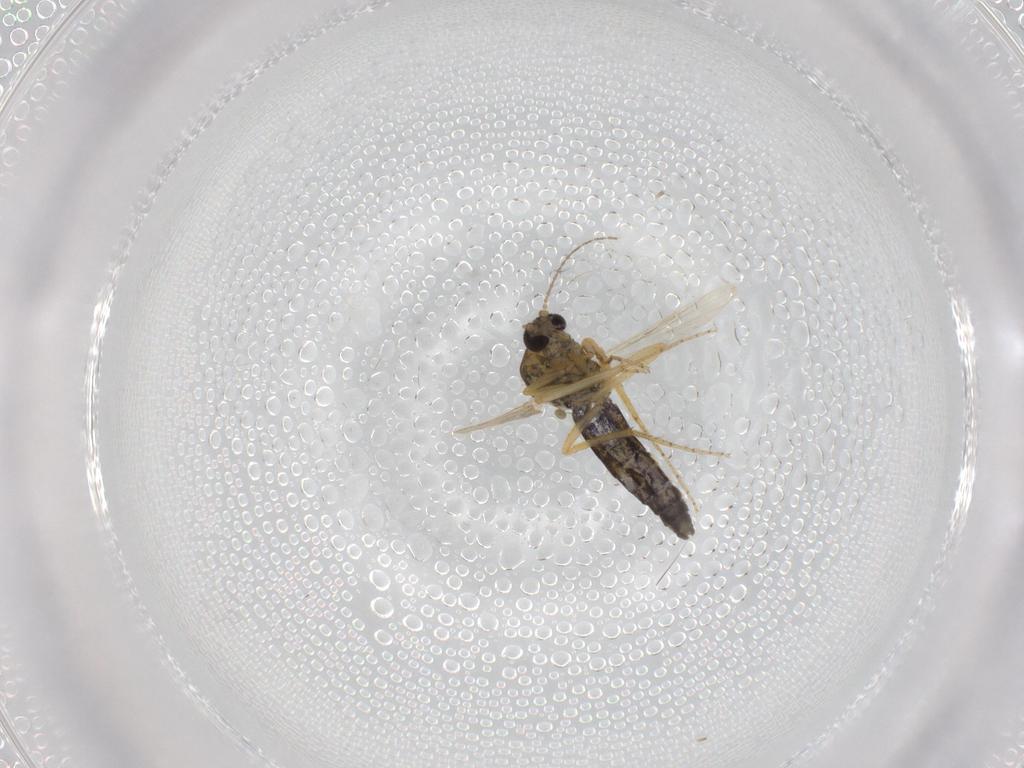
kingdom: Animalia
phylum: Arthropoda
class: Insecta
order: Diptera
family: Ceratopogonidae
